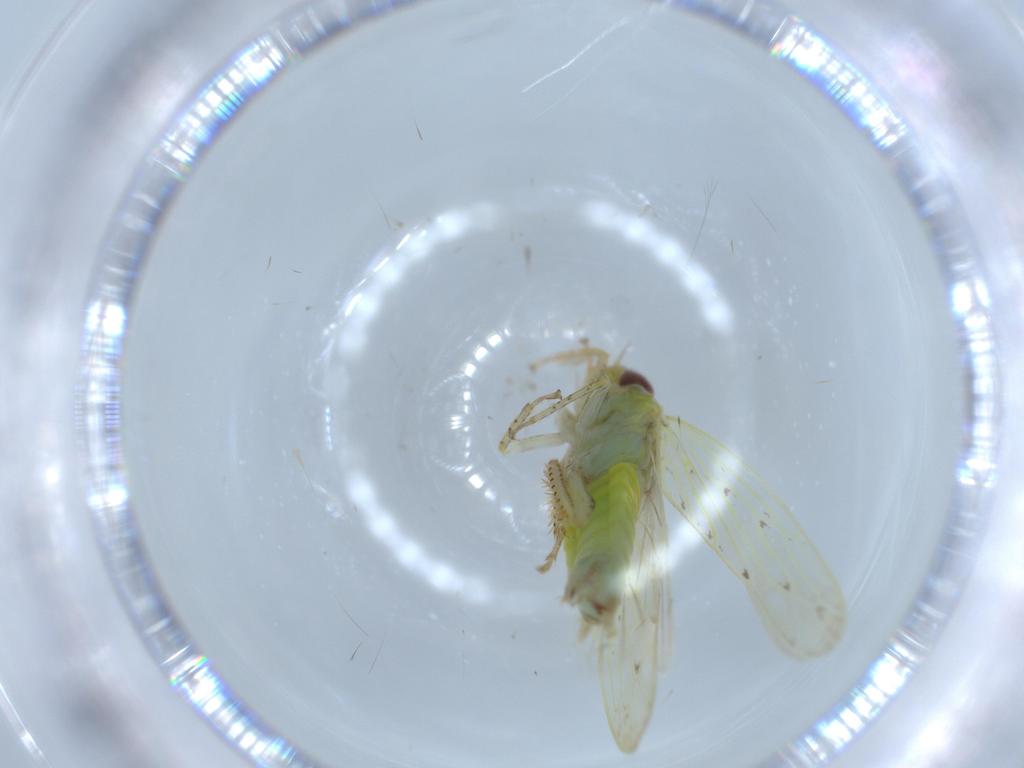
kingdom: Animalia
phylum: Arthropoda
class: Insecta
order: Hemiptera
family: Cicadellidae
